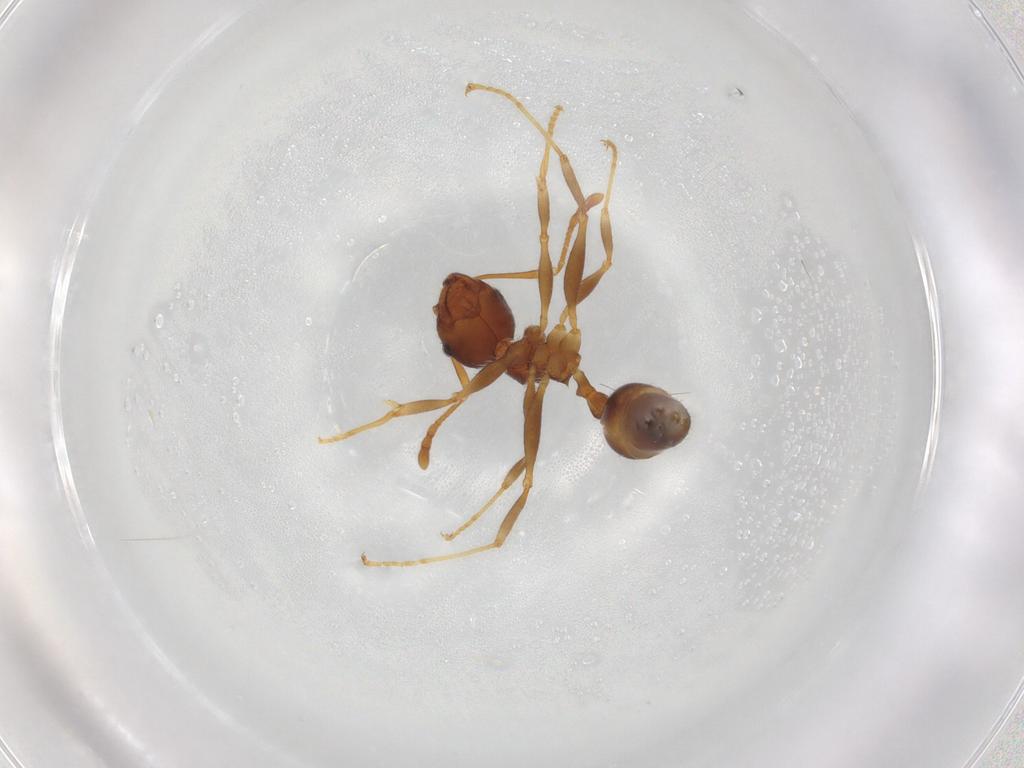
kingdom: Animalia
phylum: Arthropoda
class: Insecta
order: Hymenoptera
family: Formicidae
